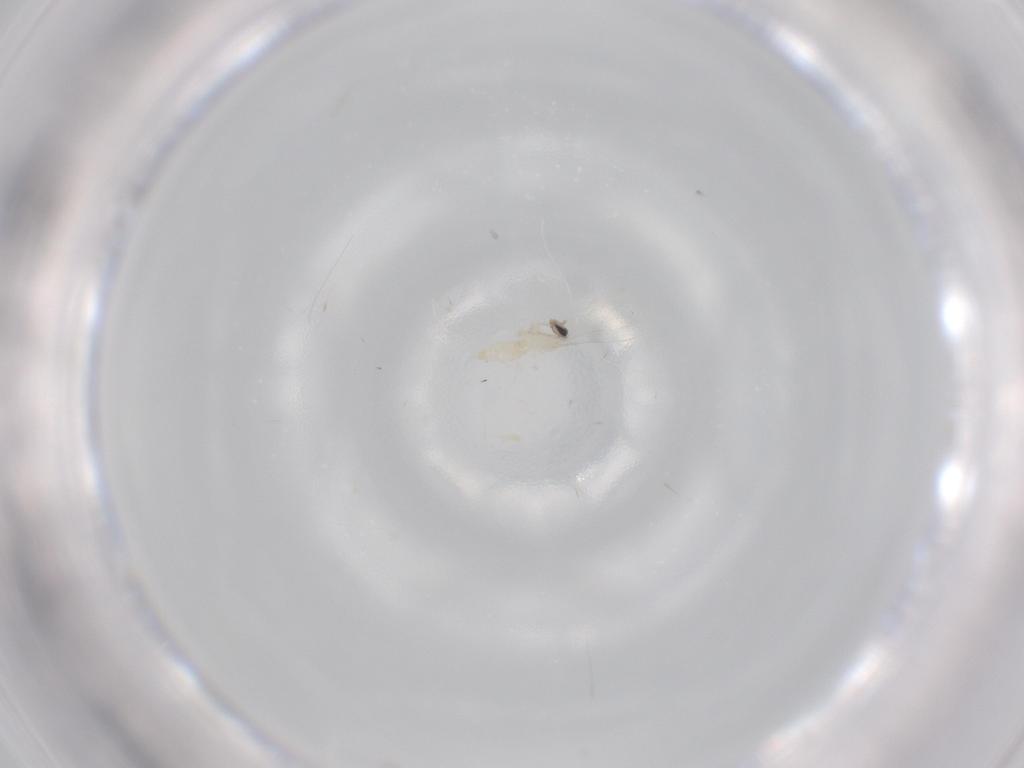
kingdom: Animalia
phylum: Arthropoda
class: Insecta
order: Diptera
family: Cecidomyiidae
